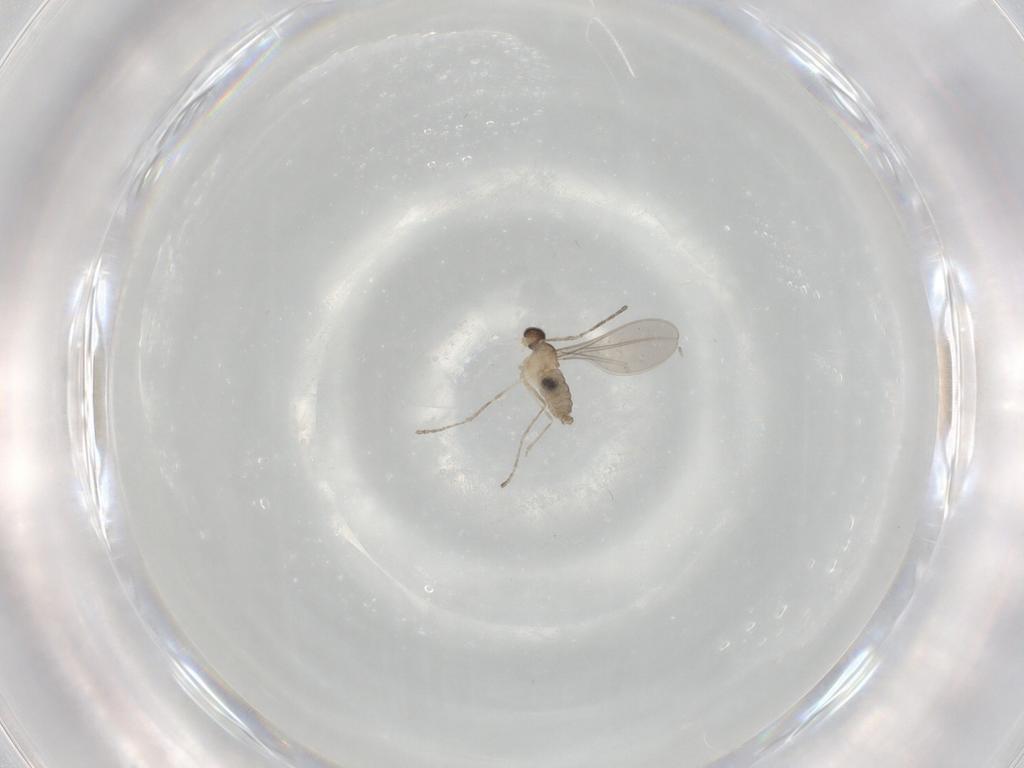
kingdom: Animalia
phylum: Arthropoda
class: Insecta
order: Diptera
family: Cecidomyiidae
